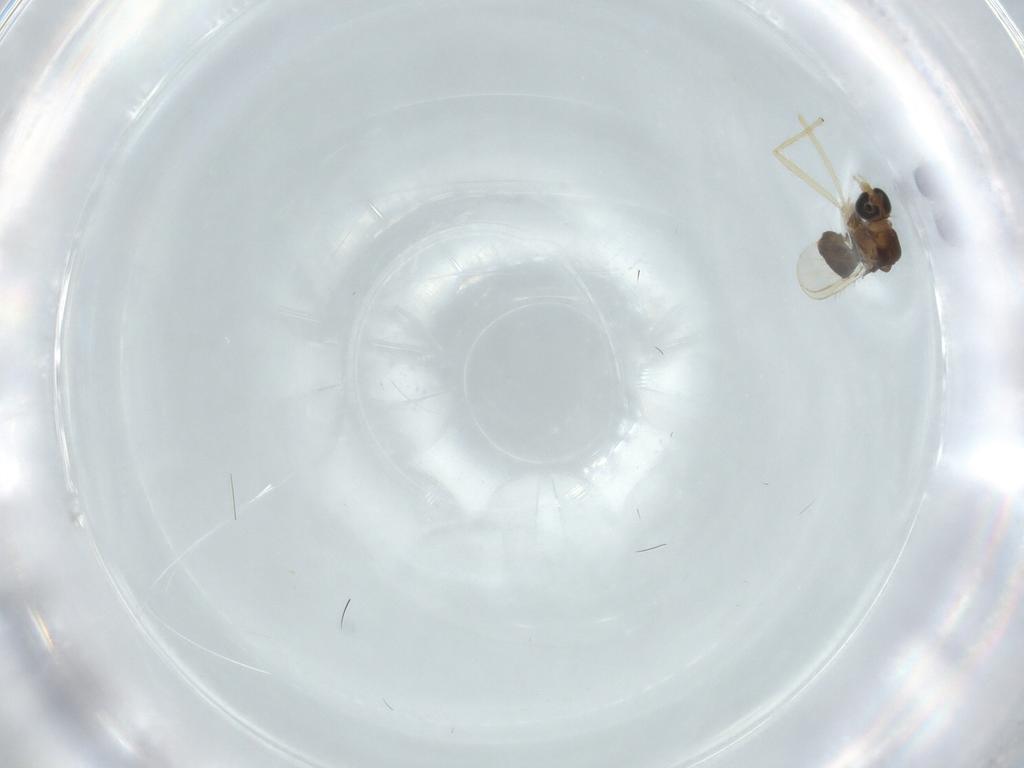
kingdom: Animalia
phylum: Arthropoda
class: Insecta
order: Diptera
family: Chironomidae
